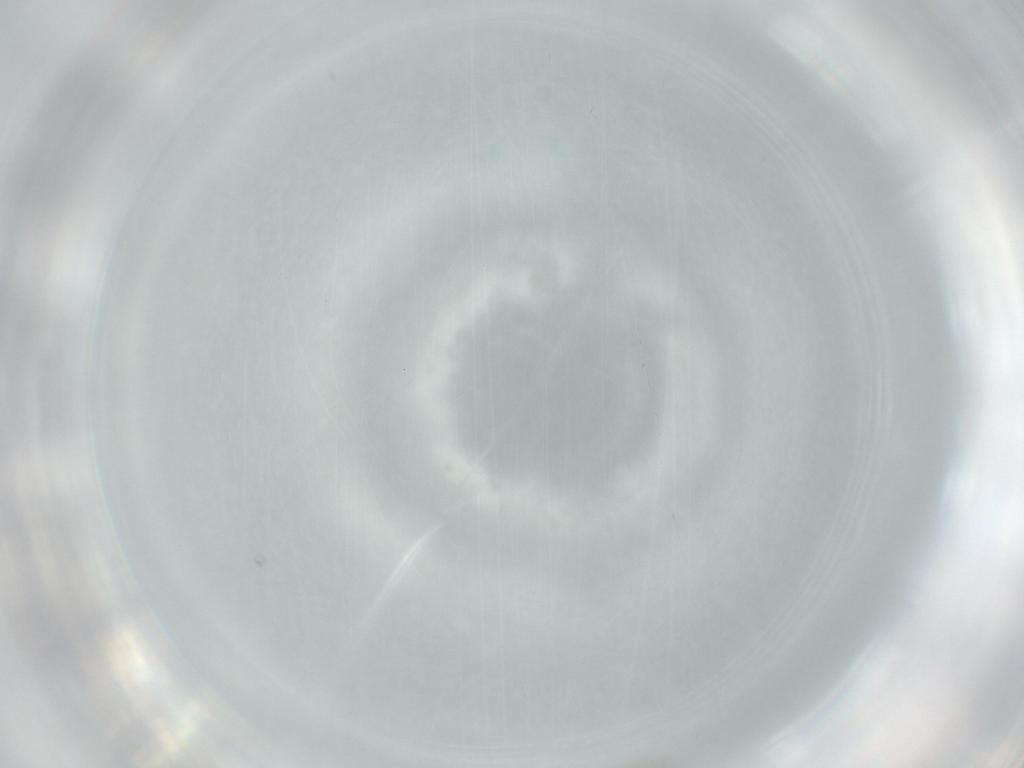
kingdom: Animalia
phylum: Arthropoda
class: Insecta
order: Diptera
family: Cecidomyiidae
